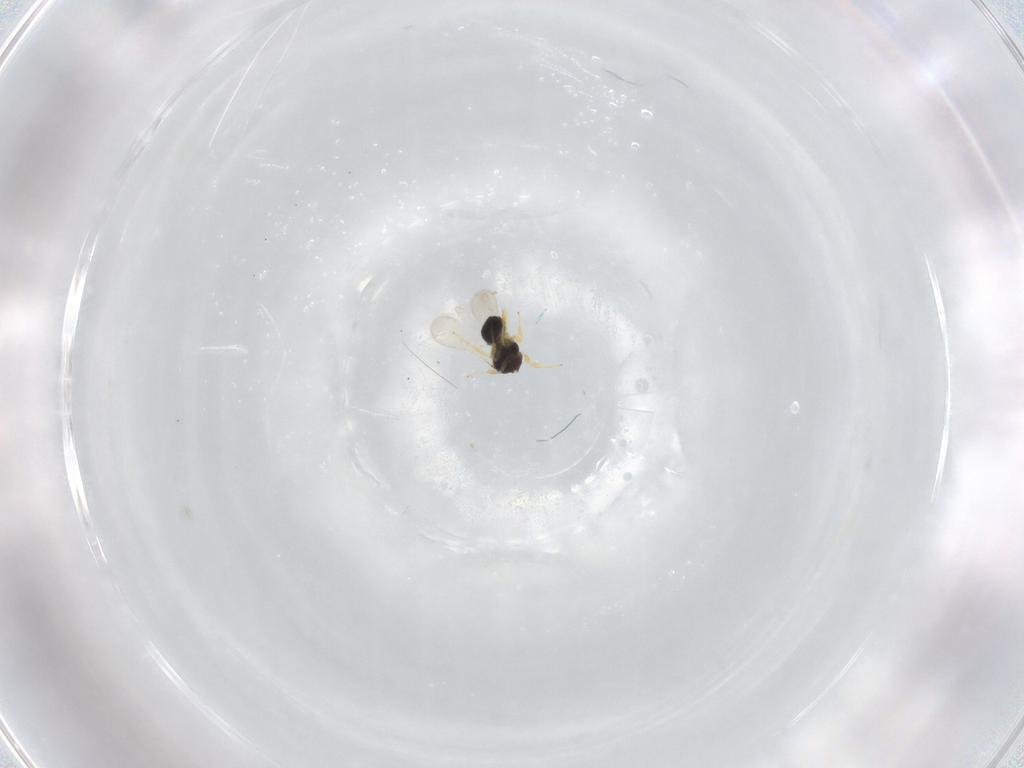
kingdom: Animalia
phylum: Arthropoda
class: Insecta
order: Hymenoptera
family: Scelionidae
